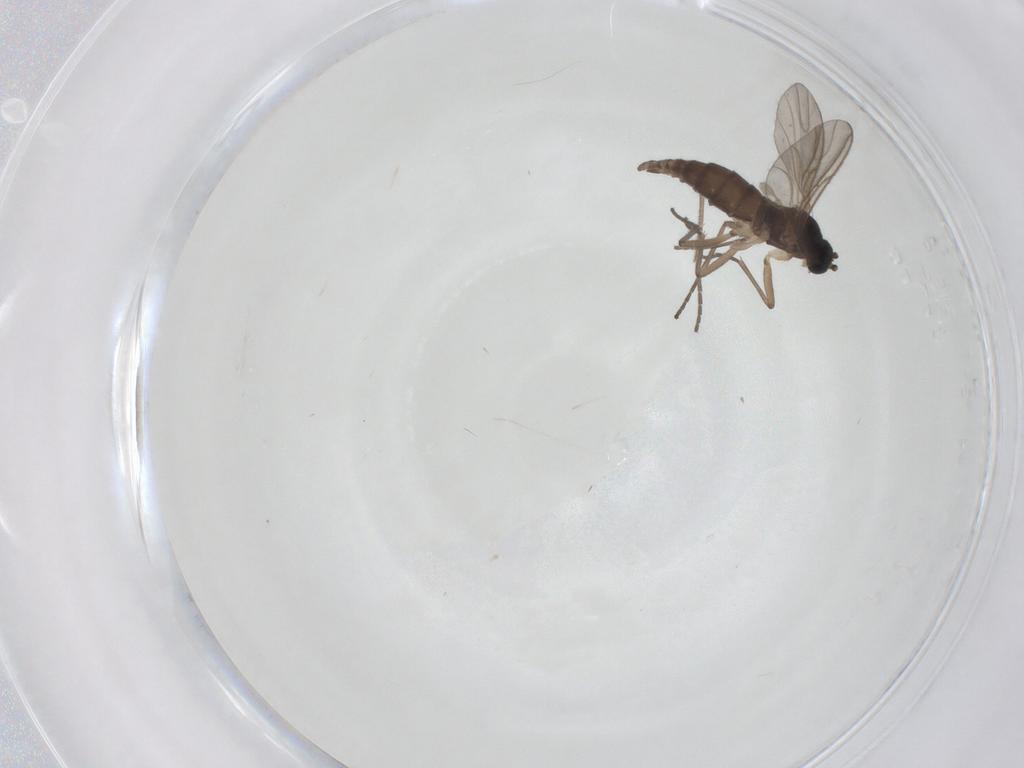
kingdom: Animalia
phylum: Arthropoda
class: Insecta
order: Diptera
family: Sciaridae
